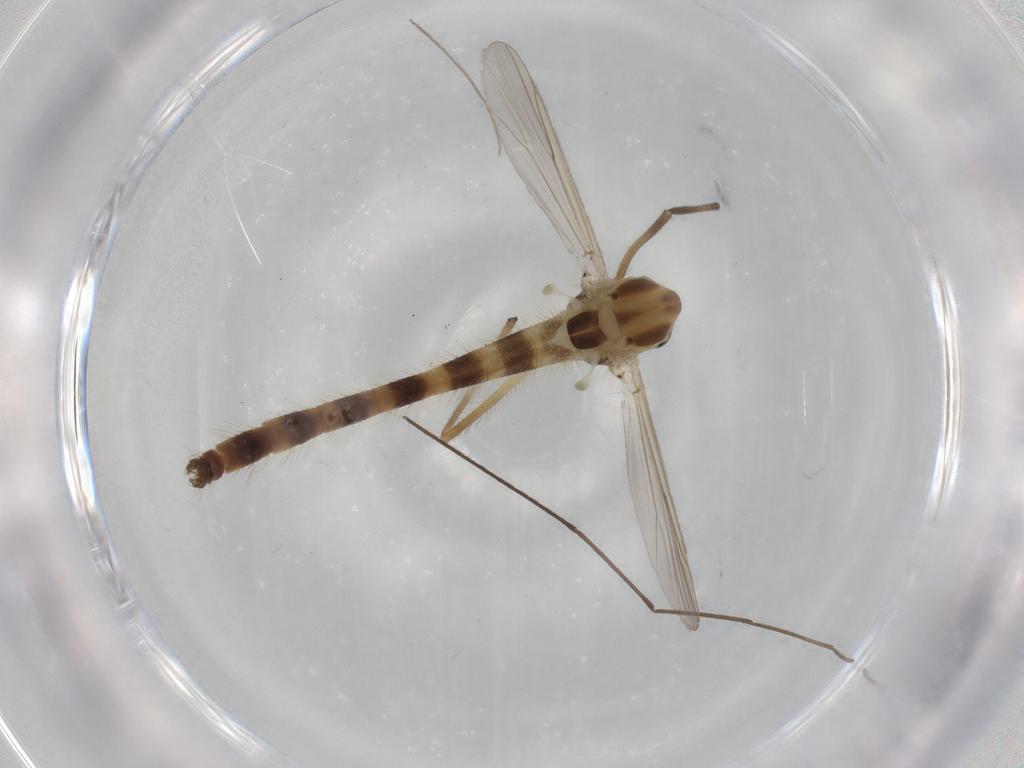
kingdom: Animalia
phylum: Arthropoda
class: Insecta
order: Diptera
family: Chironomidae
